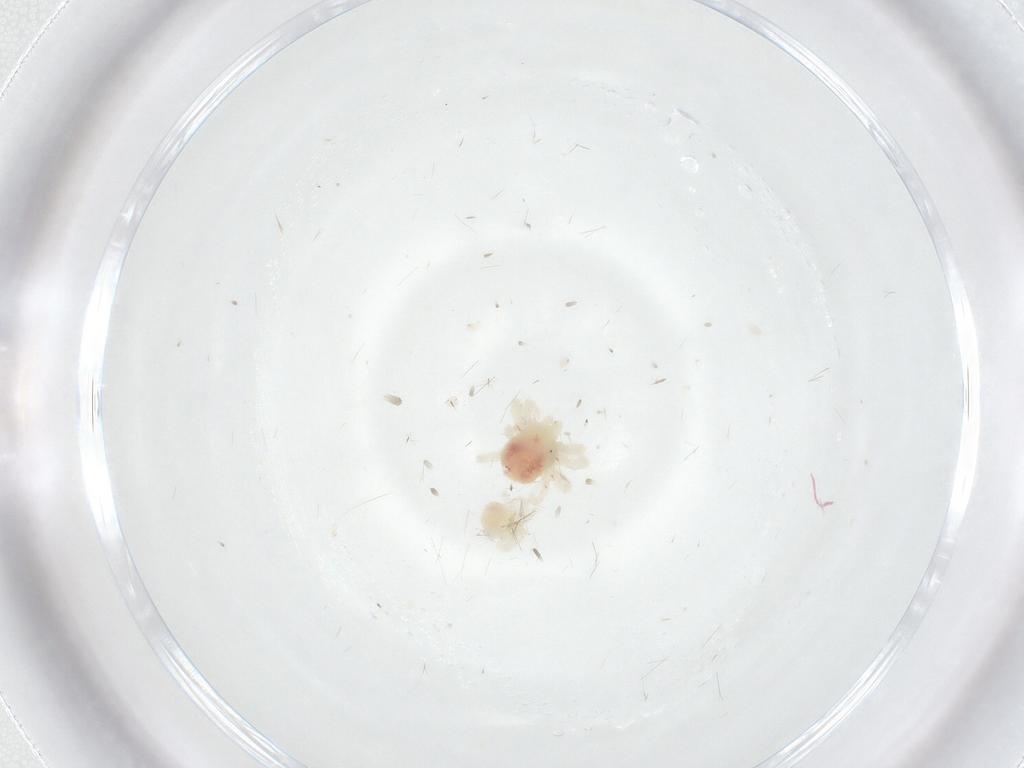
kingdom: Animalia
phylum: Arthropoda
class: Arachnida
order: Trombidiformes
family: Anystidae
